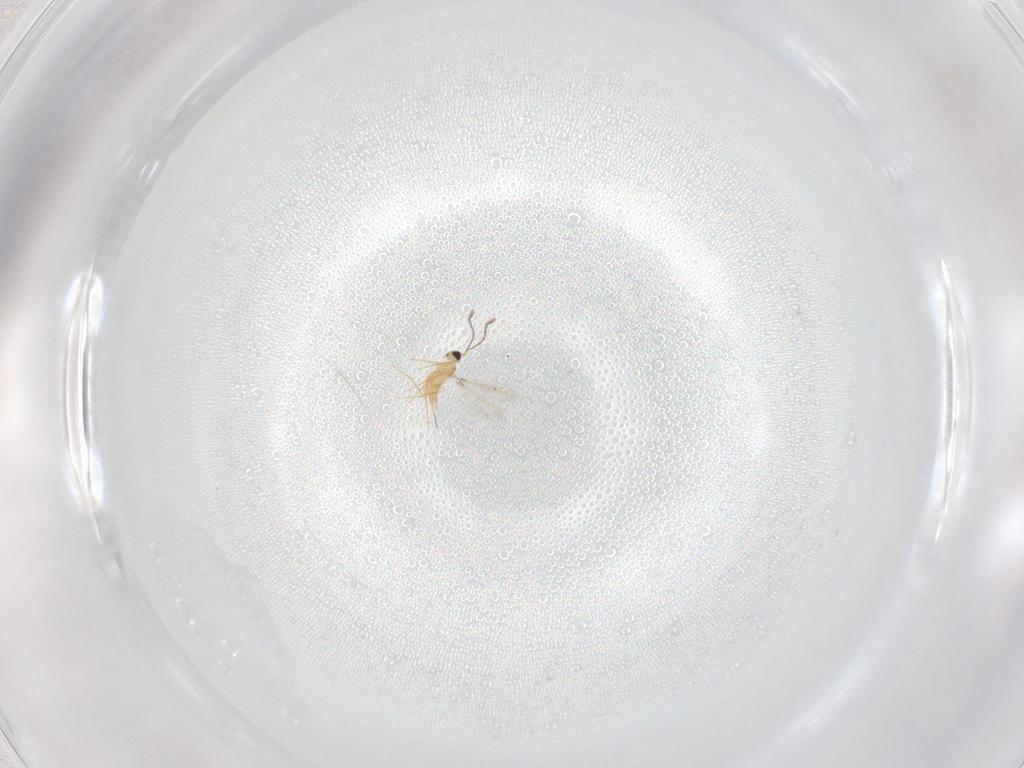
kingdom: Animalia
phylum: Arthropoda
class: Insecta
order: Hymenoptera
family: Mymaridae
